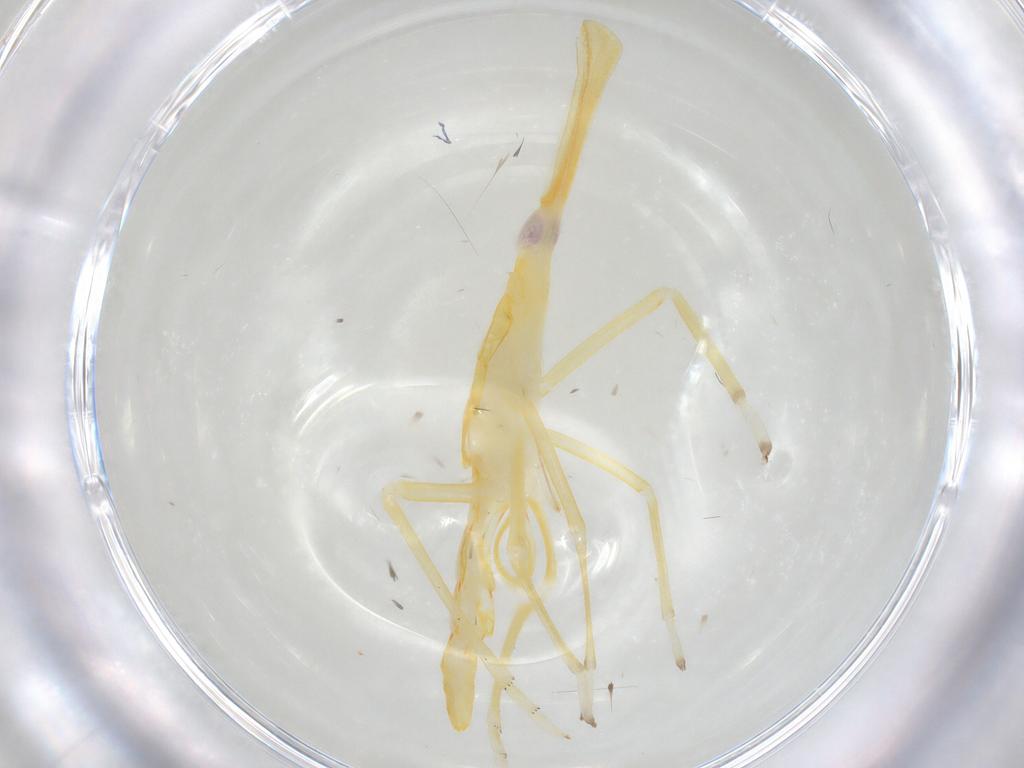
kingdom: Animalia
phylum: Arthropoda
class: Insecta
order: Hemiptera
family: Dictyopharidae
